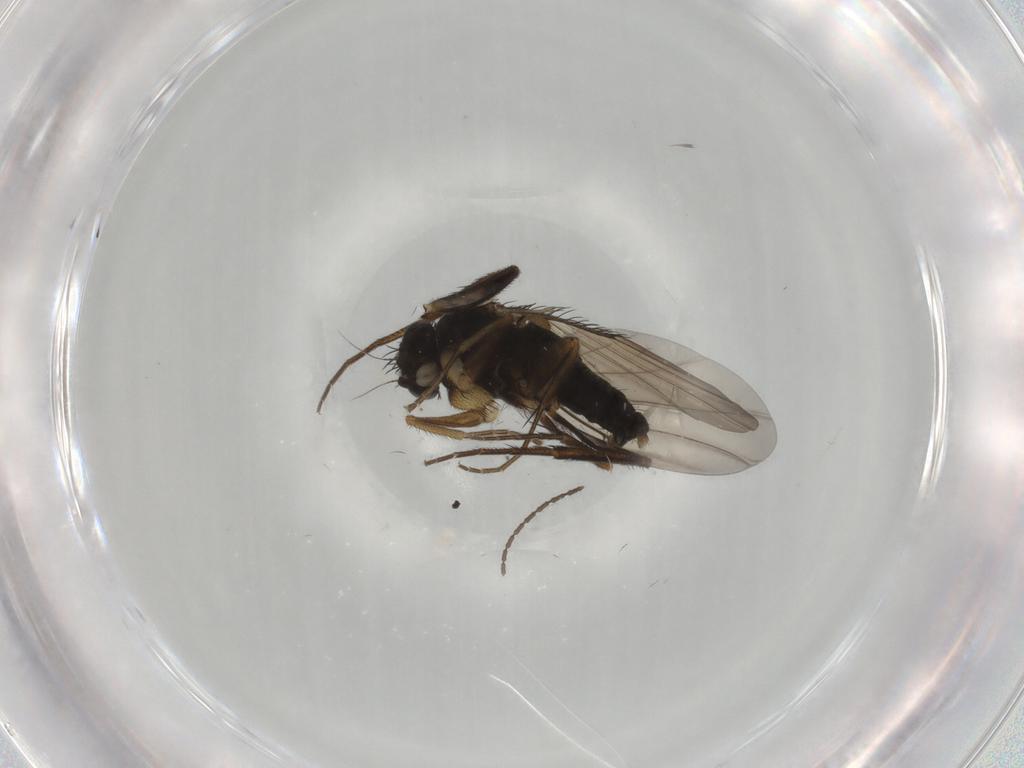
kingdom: Animalia
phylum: Arthropoda
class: Insecta
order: Diptera
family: Phoridae
